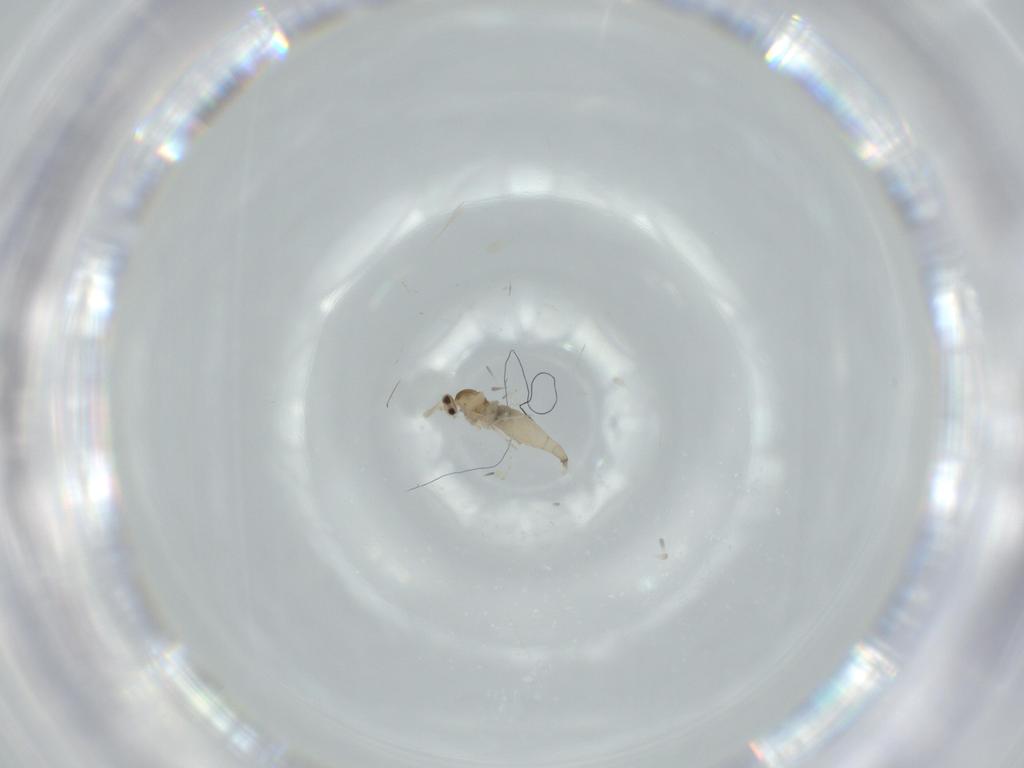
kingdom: Animalia
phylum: Arthropoda
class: Insecta
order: Diptera
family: Cecidomyiidae
